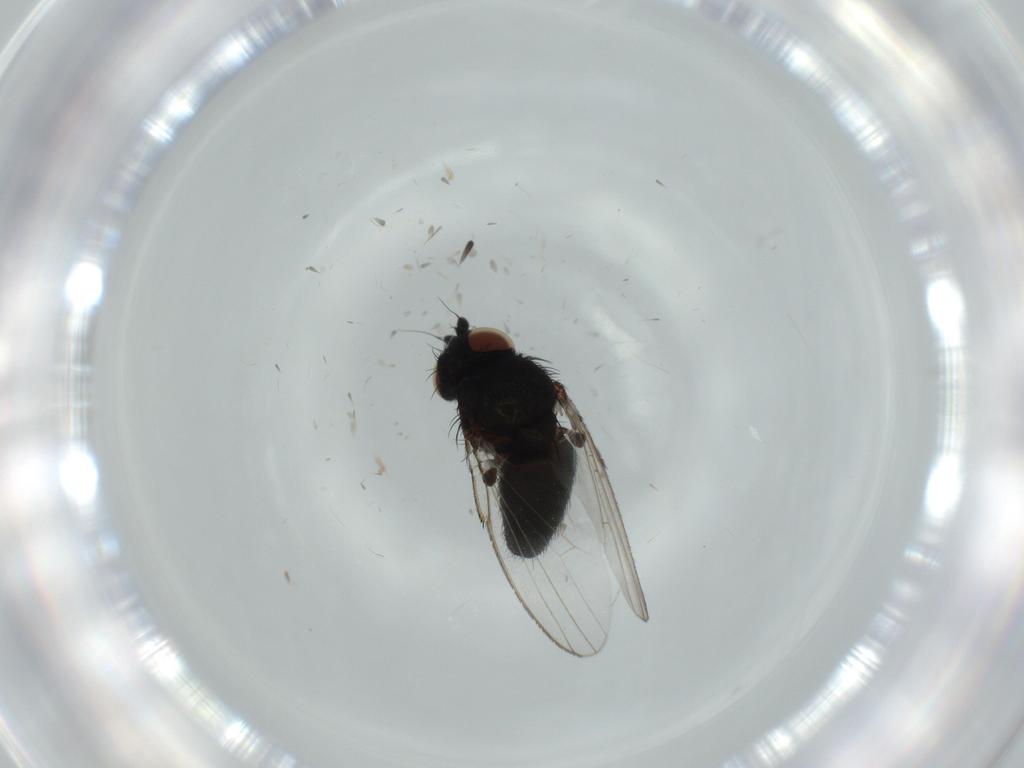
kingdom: Animalia
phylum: Arthropoda
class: Insecta
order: Diptera
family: Milichiidae
